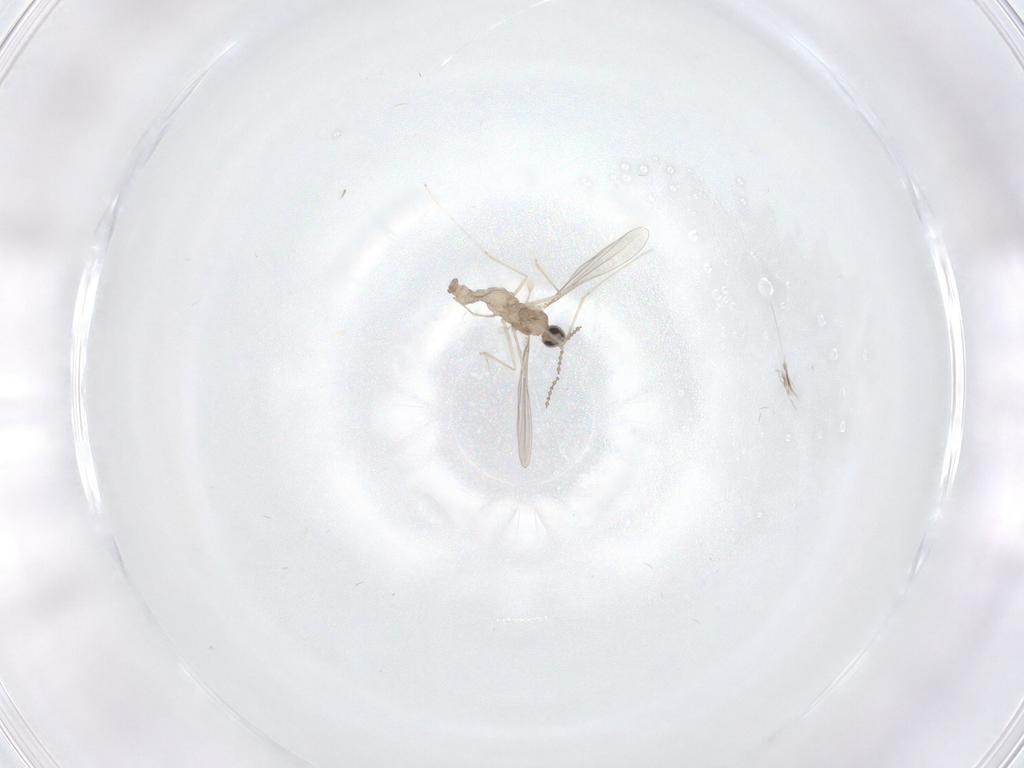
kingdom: Animalia
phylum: Arthropoda
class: Insecta
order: Diptera
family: Cecidomyiidae
